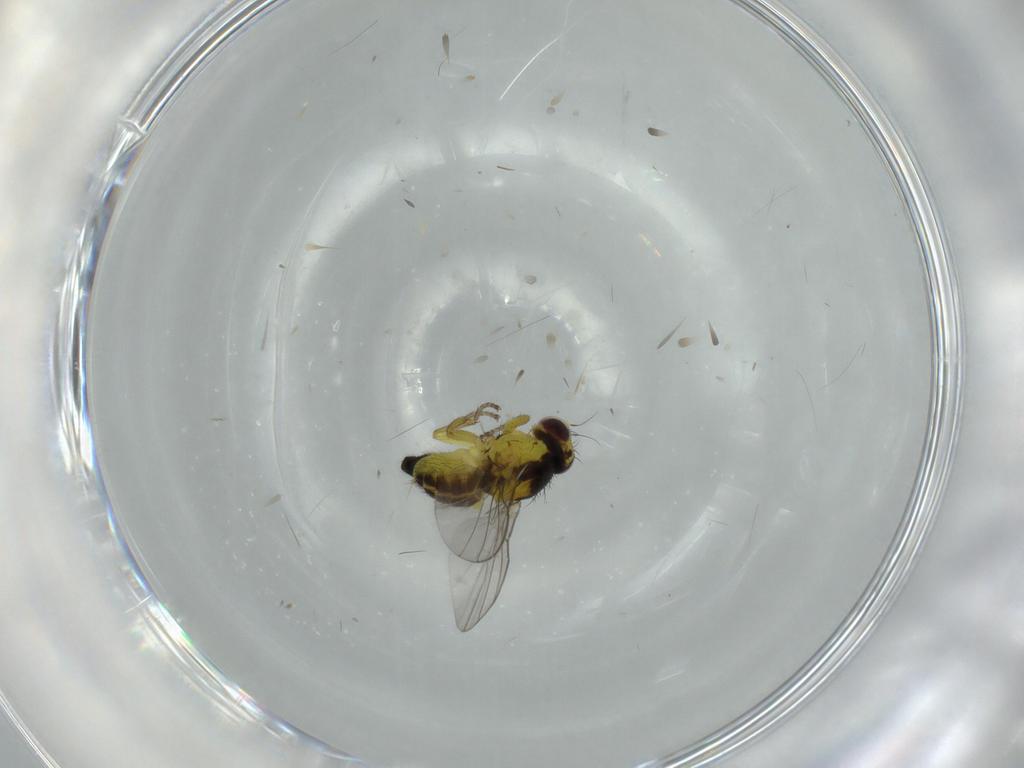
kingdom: Animalia
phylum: Arthropoda
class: Insecta
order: Diptera
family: Agromyzidae
